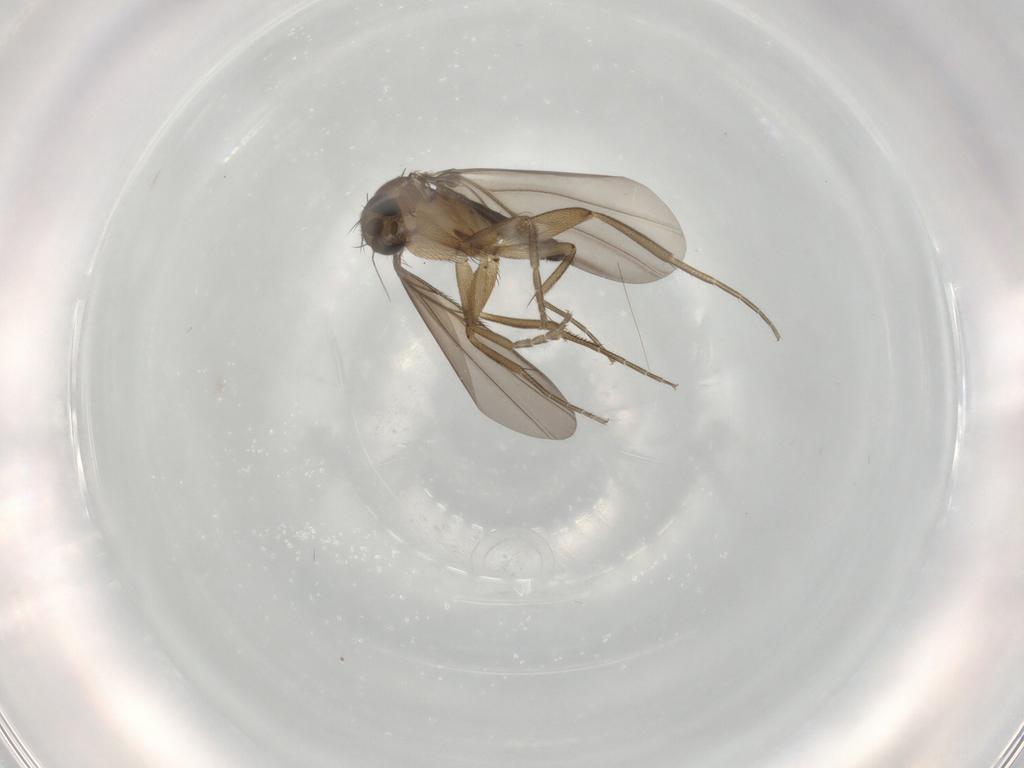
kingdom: Animalia
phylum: Arthropoda
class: Insecta
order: Diptera
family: Phoridae
